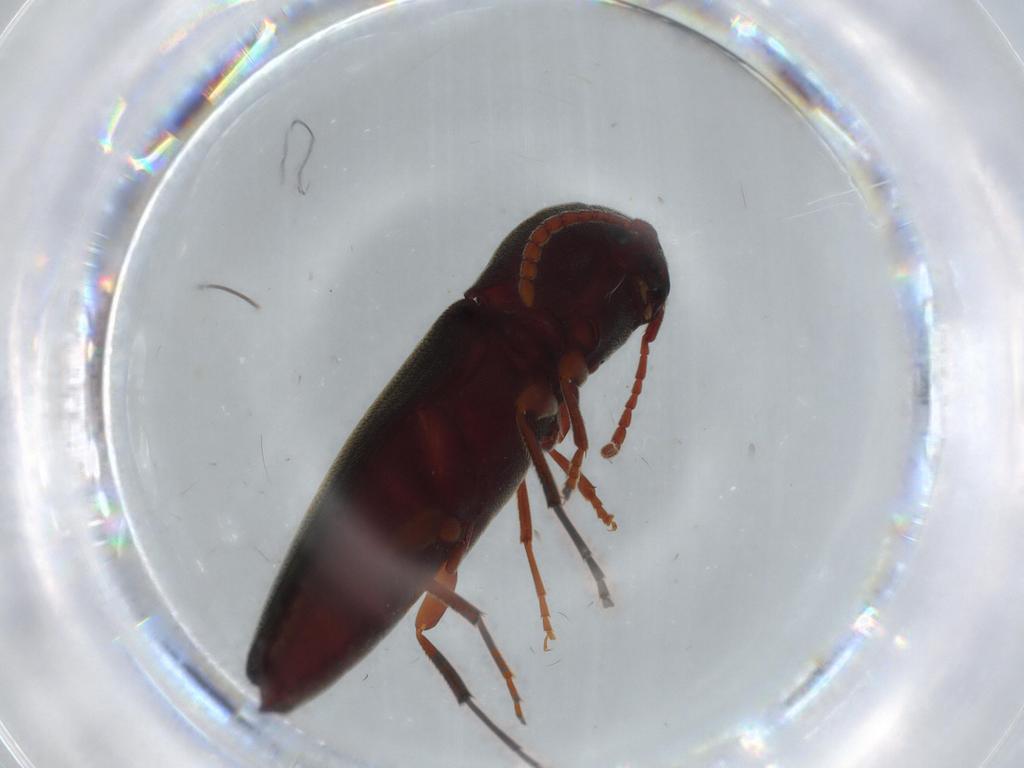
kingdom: Animalia
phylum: Arthropoda
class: Insecta
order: Coleoptera
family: Eucnemidae
